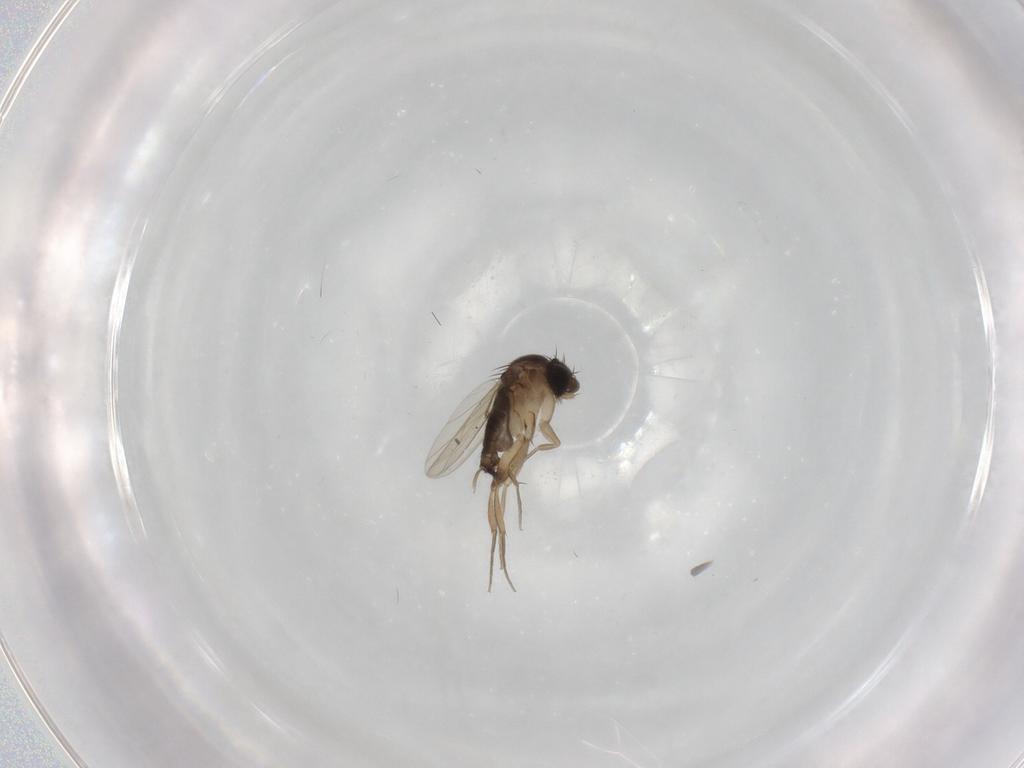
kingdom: Animalia
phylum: Arthropoda
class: Insecta
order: Diptera
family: Phoridae
